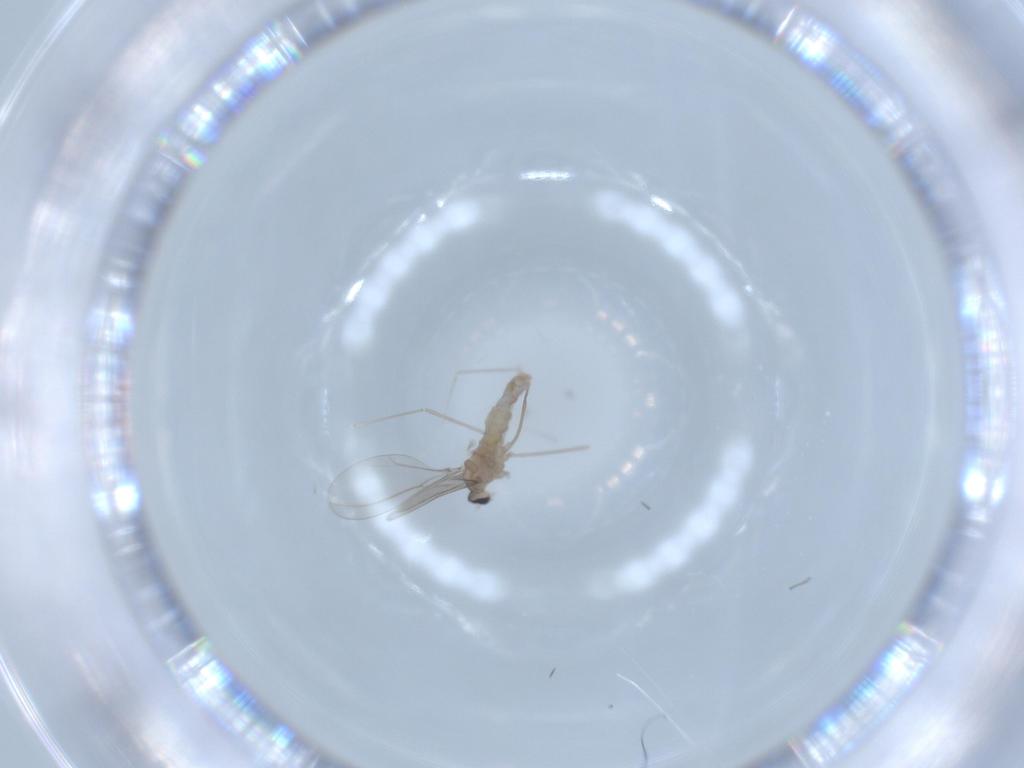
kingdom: Animalia
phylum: Arthropoda
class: Insecta
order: Diptera
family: Cecidomyiidae
